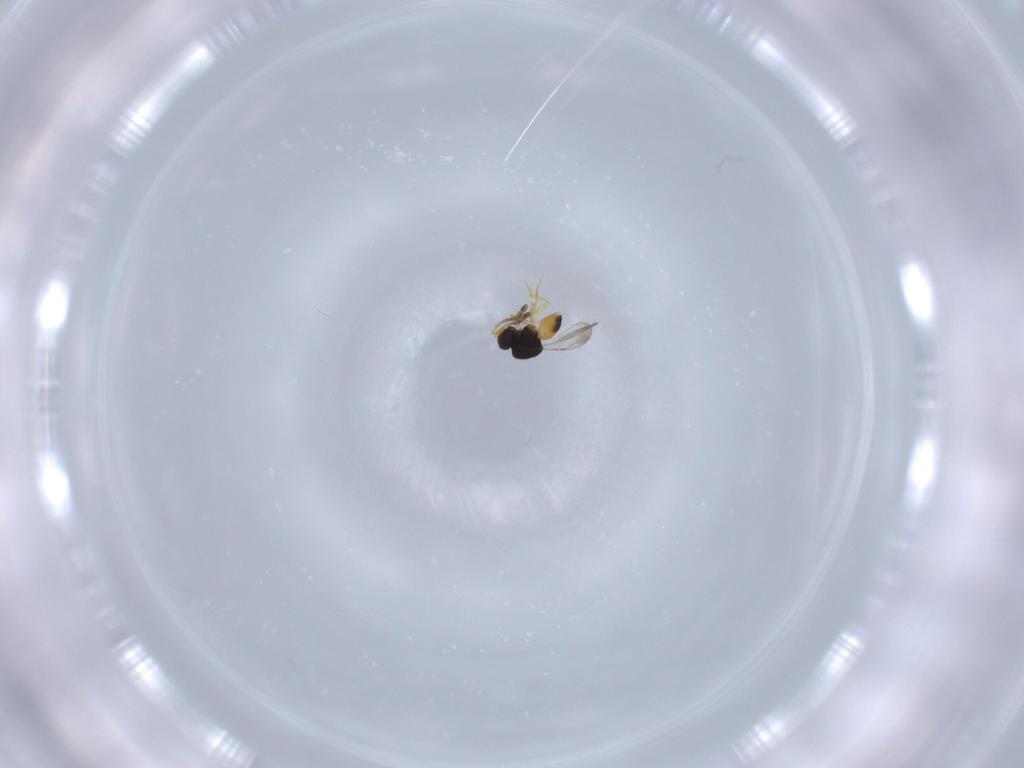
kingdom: Animalia
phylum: Arthropoda
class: Insecta
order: Hymenoptera
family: Ceraphronidae
